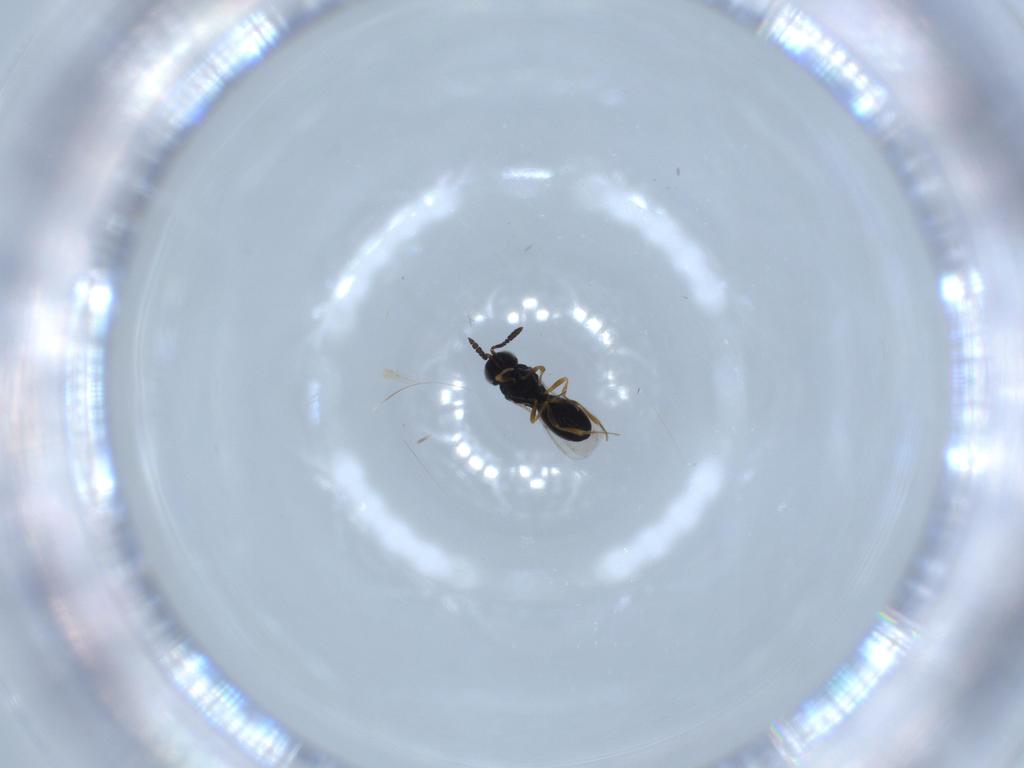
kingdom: Animalia
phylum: Arthropoda
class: Insecta
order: Hymenoptera
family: Scelionidae
